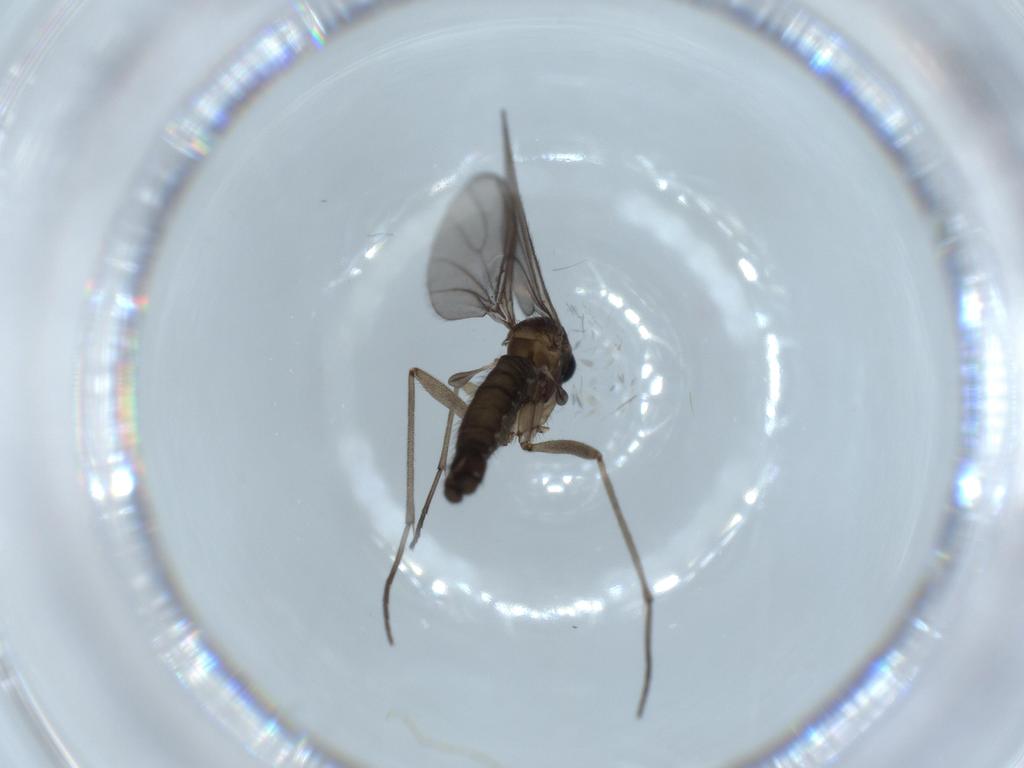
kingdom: Animalia
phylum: Arthropoda
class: Insecta
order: Diptera
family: Sciaridae
